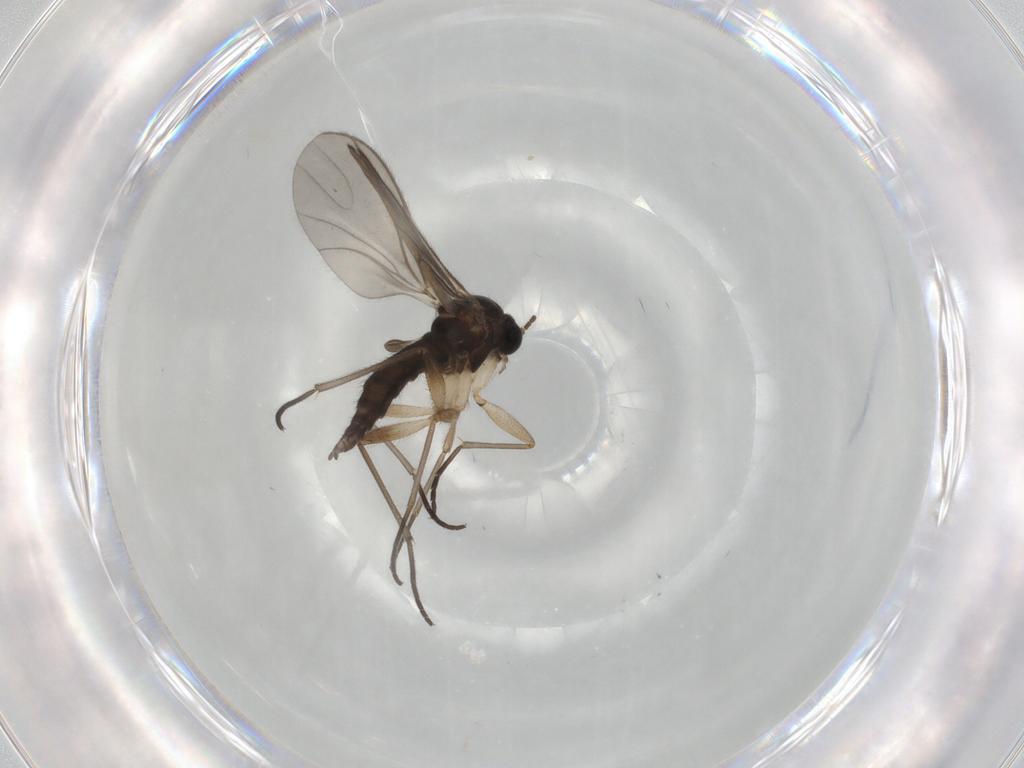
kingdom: Animalia
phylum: Arthropoda
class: Insecta
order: Diptera
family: Sciaridae
